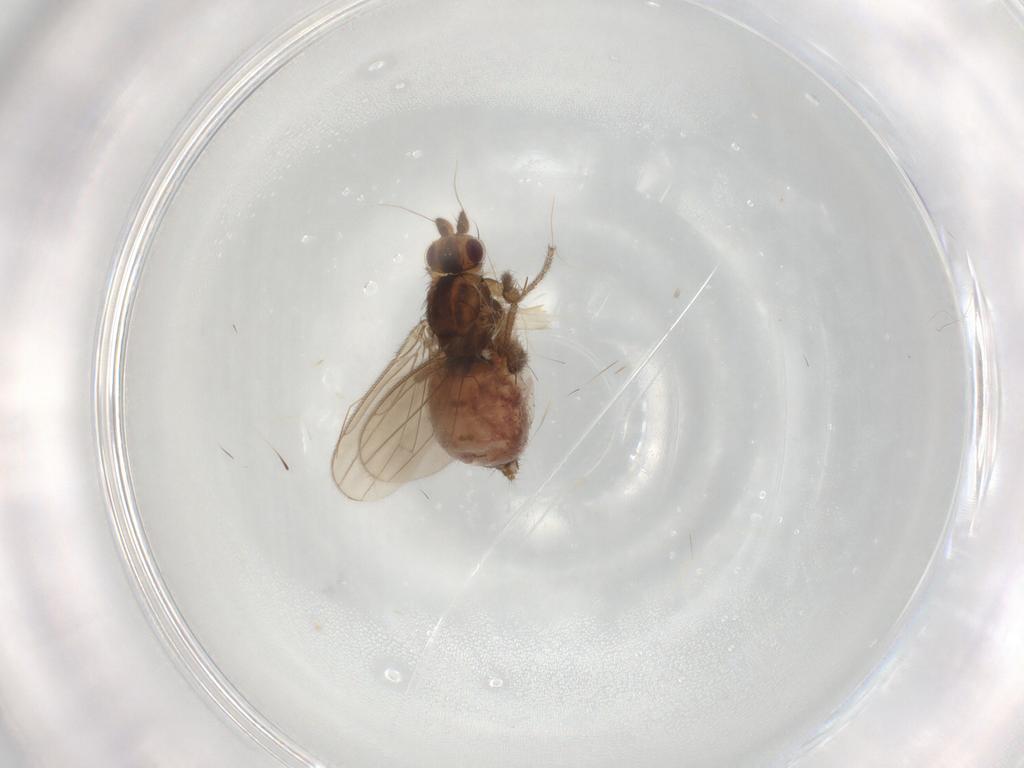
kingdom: Animalia
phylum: Arthropoda
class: Insecta
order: Diptera
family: Sphaeroceridae
